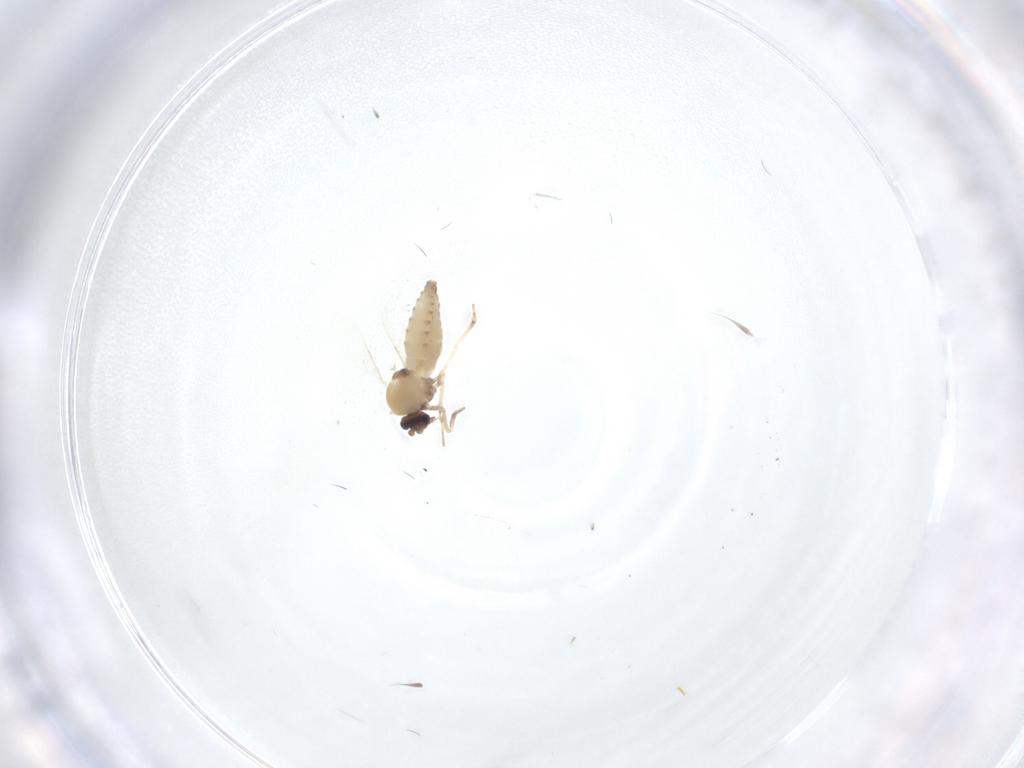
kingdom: Animalia
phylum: Arthropoda
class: Insecta
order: Diptera
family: Ceratopogonidae
